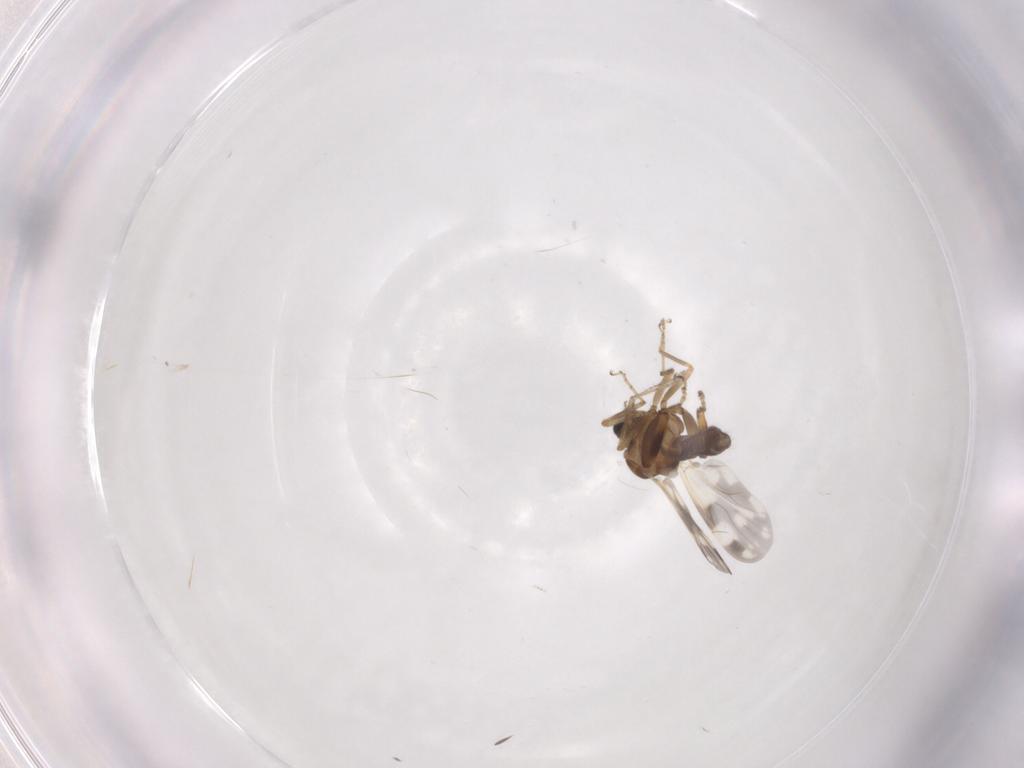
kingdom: Animalia
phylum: Arthropoda
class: Insecta
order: Diptera
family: Ceratopogonidae
